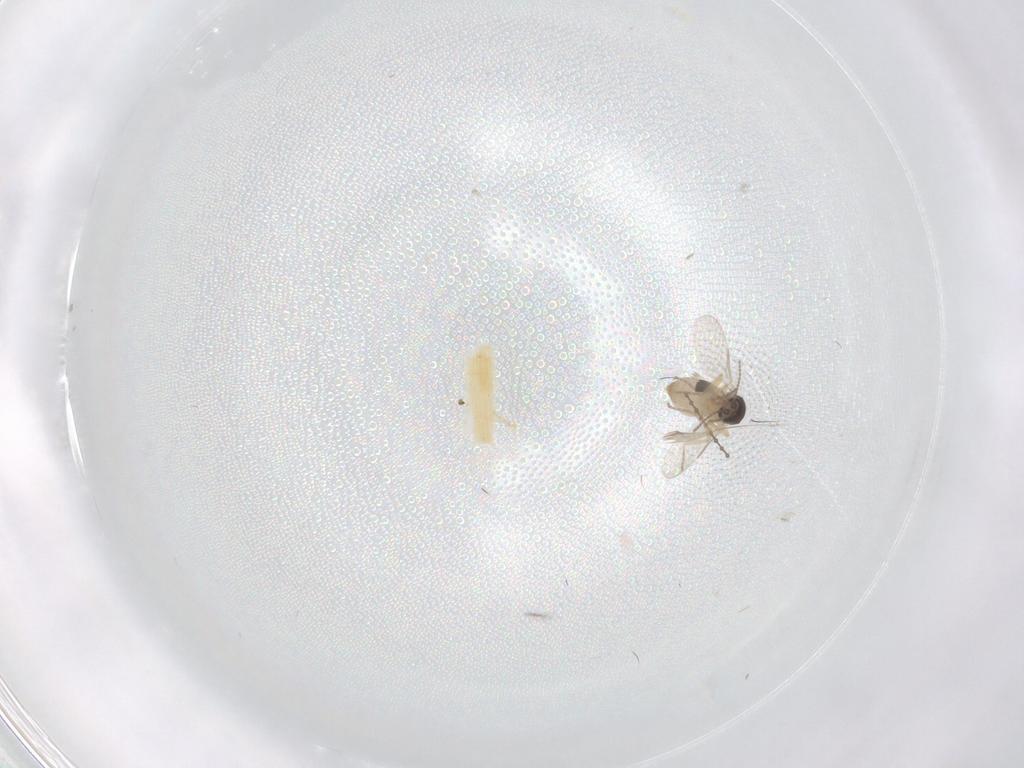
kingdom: Animalia
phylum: Arthropoda
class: Insecta
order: Diptera
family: Ceratopogonidae
